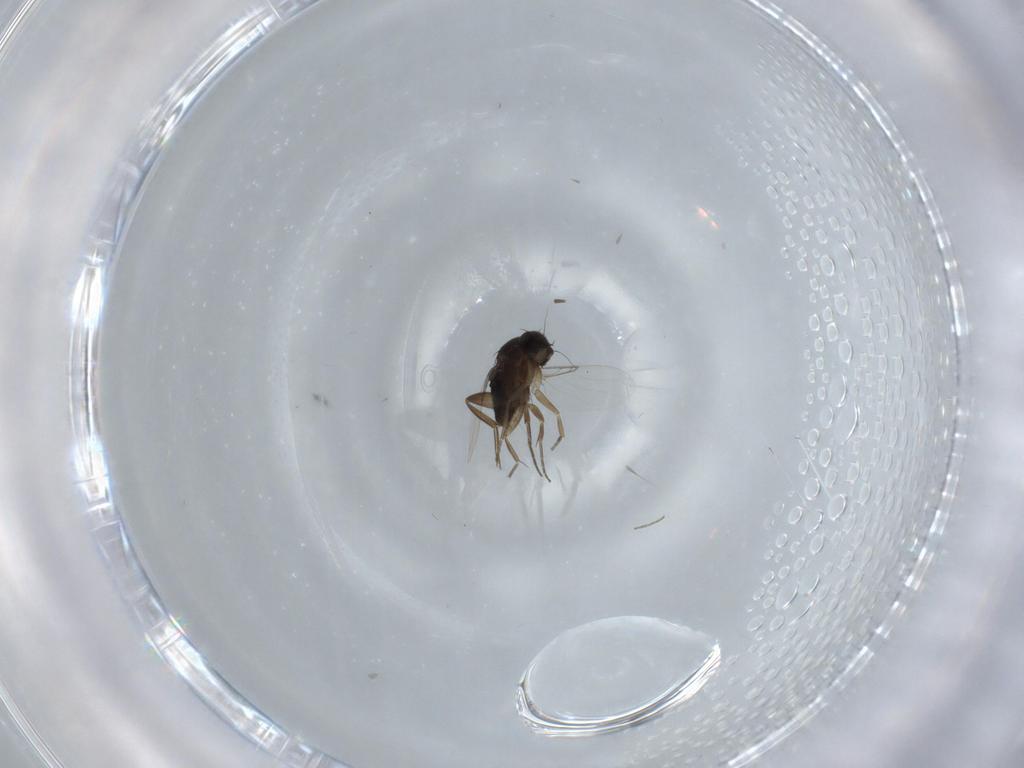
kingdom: Animalia
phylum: Arthropoda
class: Insecta
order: Diptera
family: Phoridae
